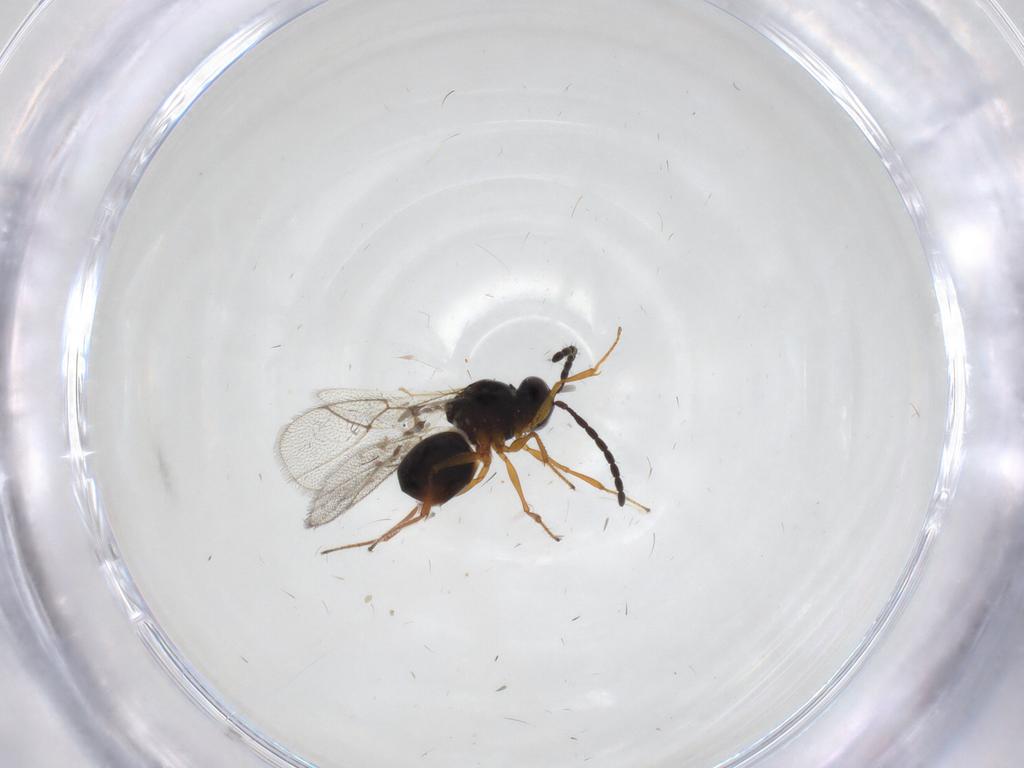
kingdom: Animalia
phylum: Arthropoda
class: Insecta
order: Hymenoptera
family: Figitidae
